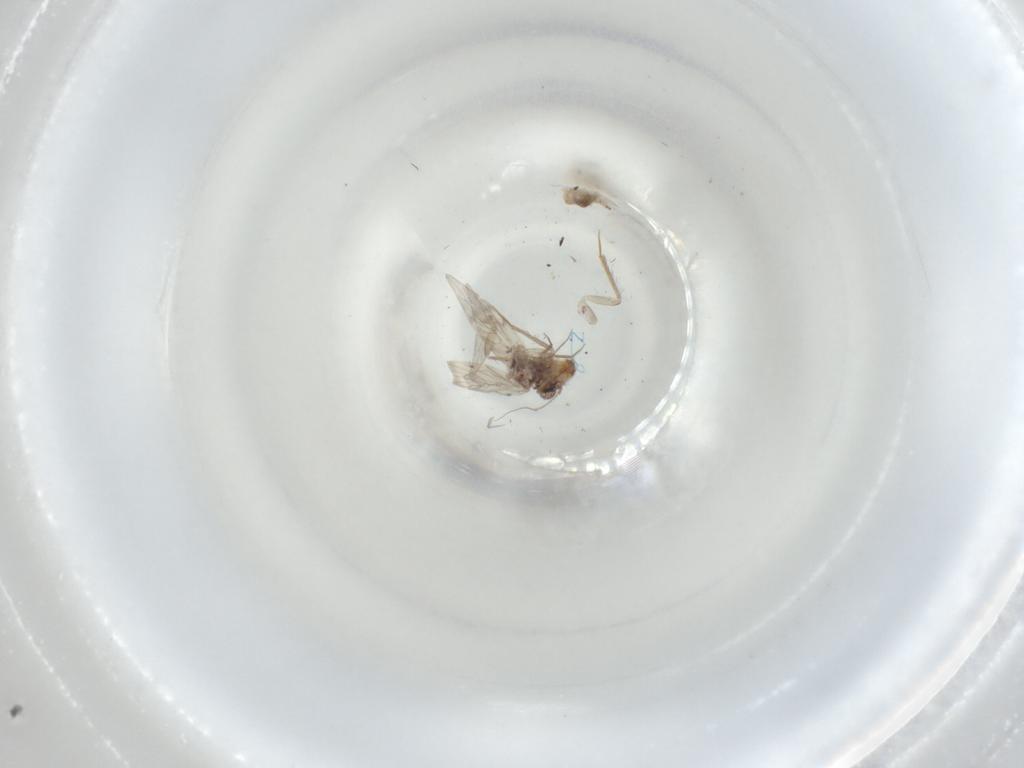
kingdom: Animalia
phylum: Arthropoda
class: Insecta
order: Psocodea
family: Lepidopsocidae
